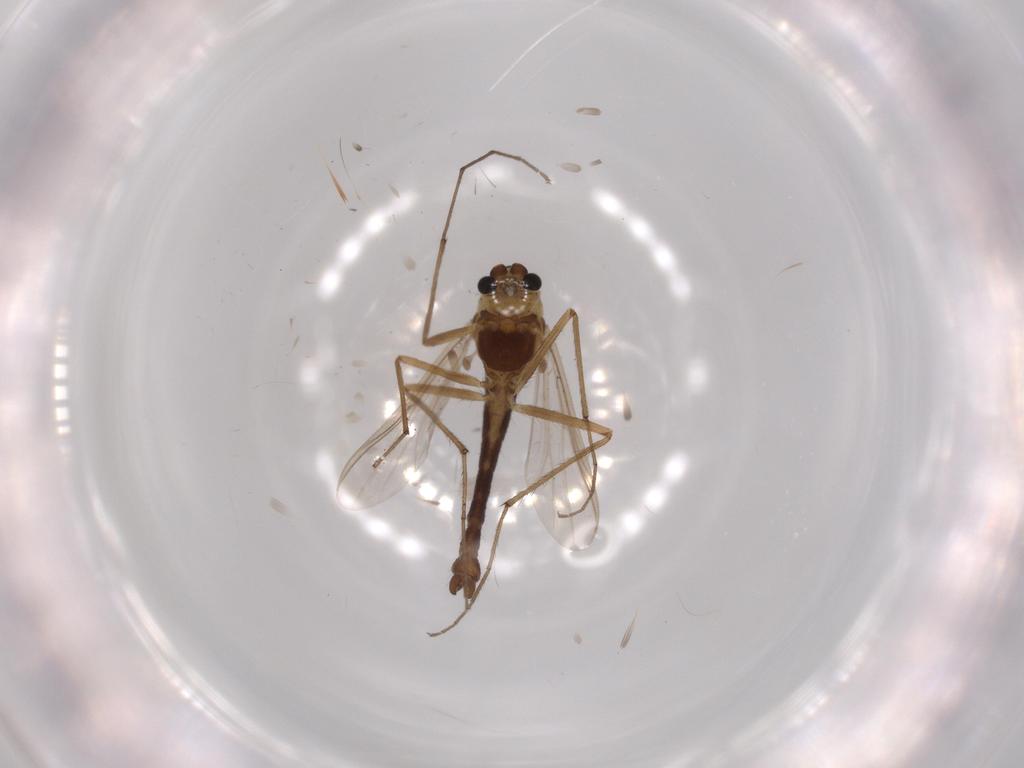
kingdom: Animalia
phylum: Arthropoda
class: Insecta
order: Diptera
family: Chironomidae
